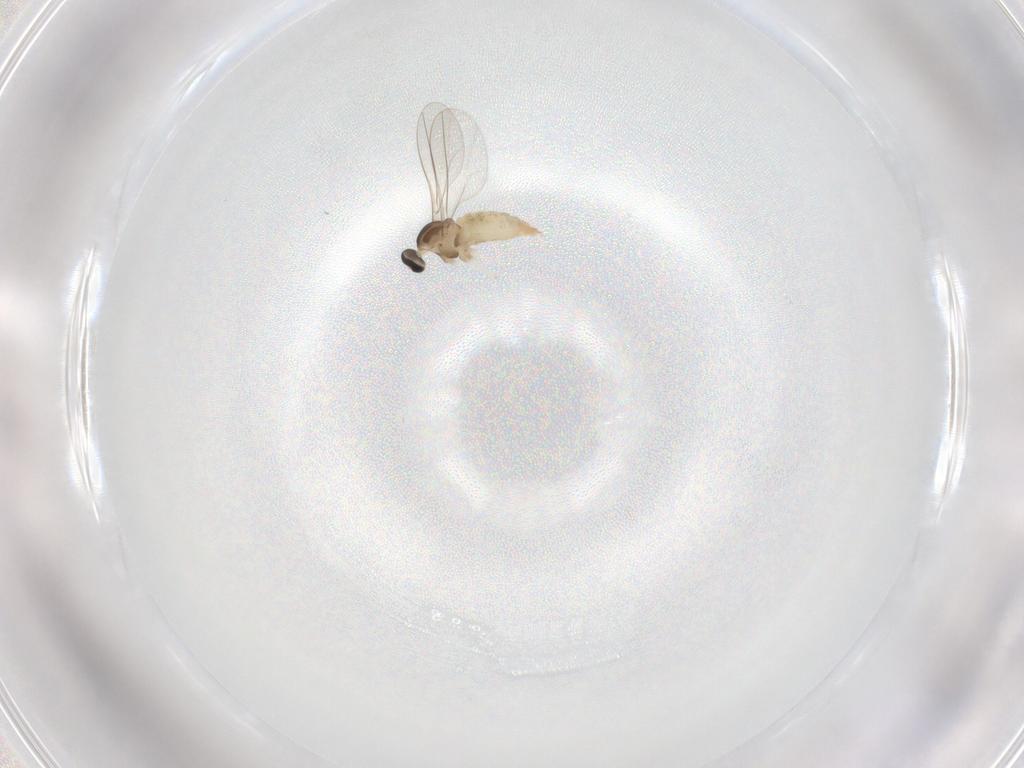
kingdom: Animalia
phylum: Arthropoda
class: Insecta
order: Diptera
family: Cecidomyiidae
